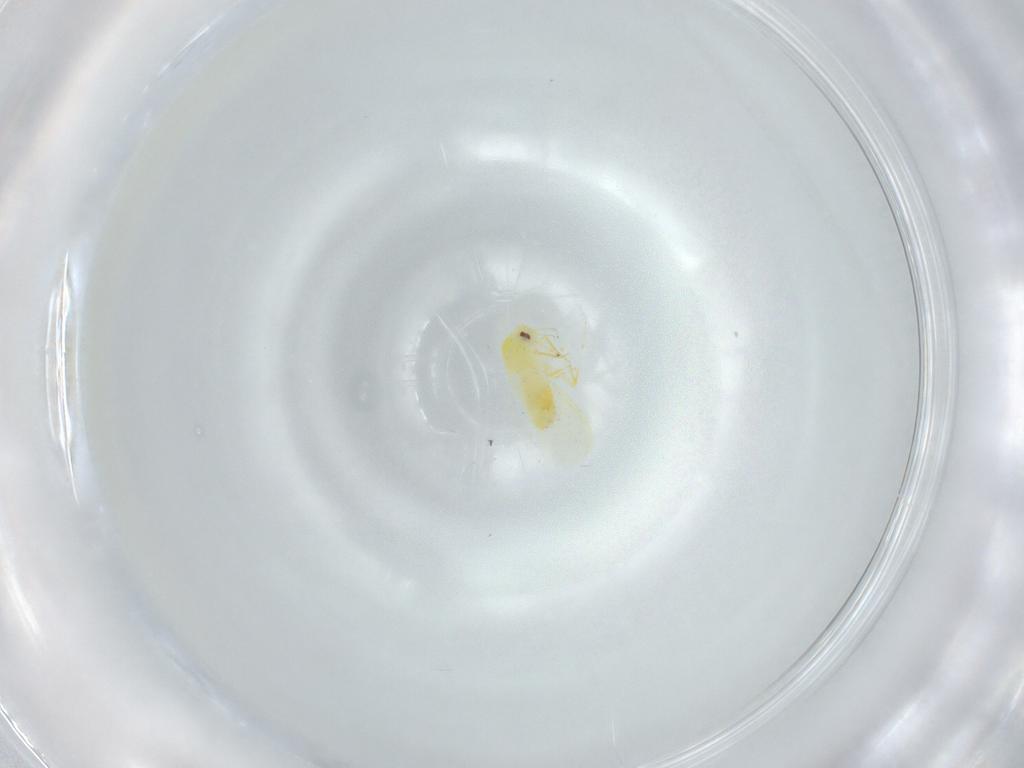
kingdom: Animalia
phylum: Arthropoda
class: Insecta
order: Hemiptera
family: Aleyrodidae
